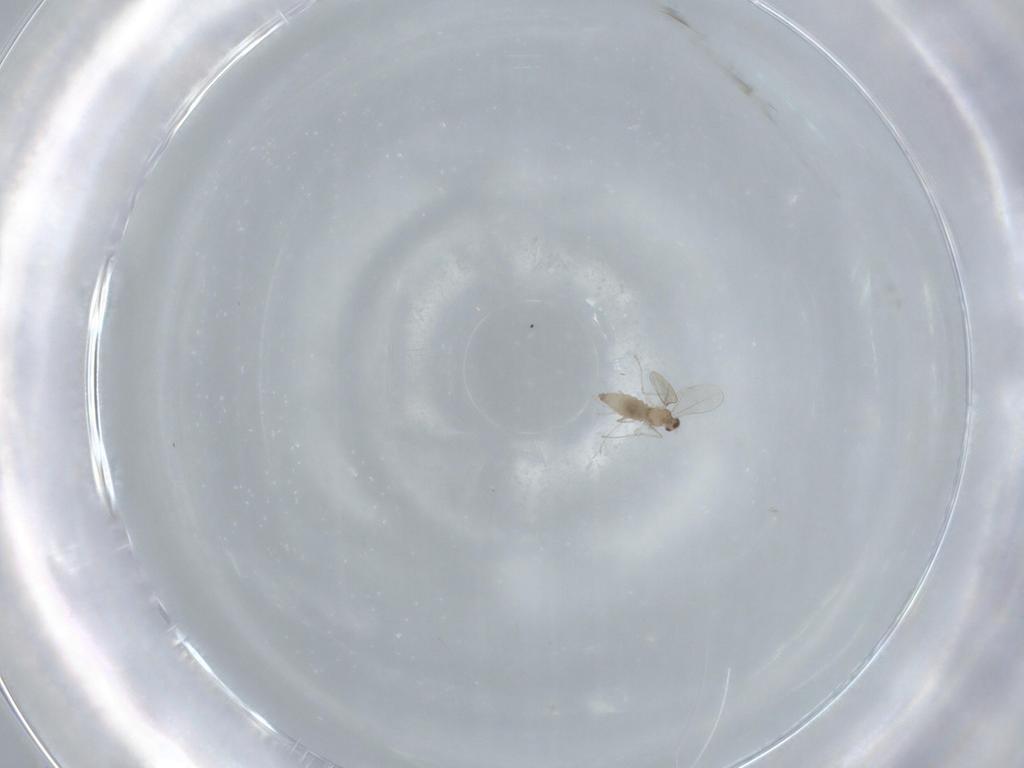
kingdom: Animalia
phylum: Arthropoda
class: Insecta
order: Diptera
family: Cecidomyiidae
